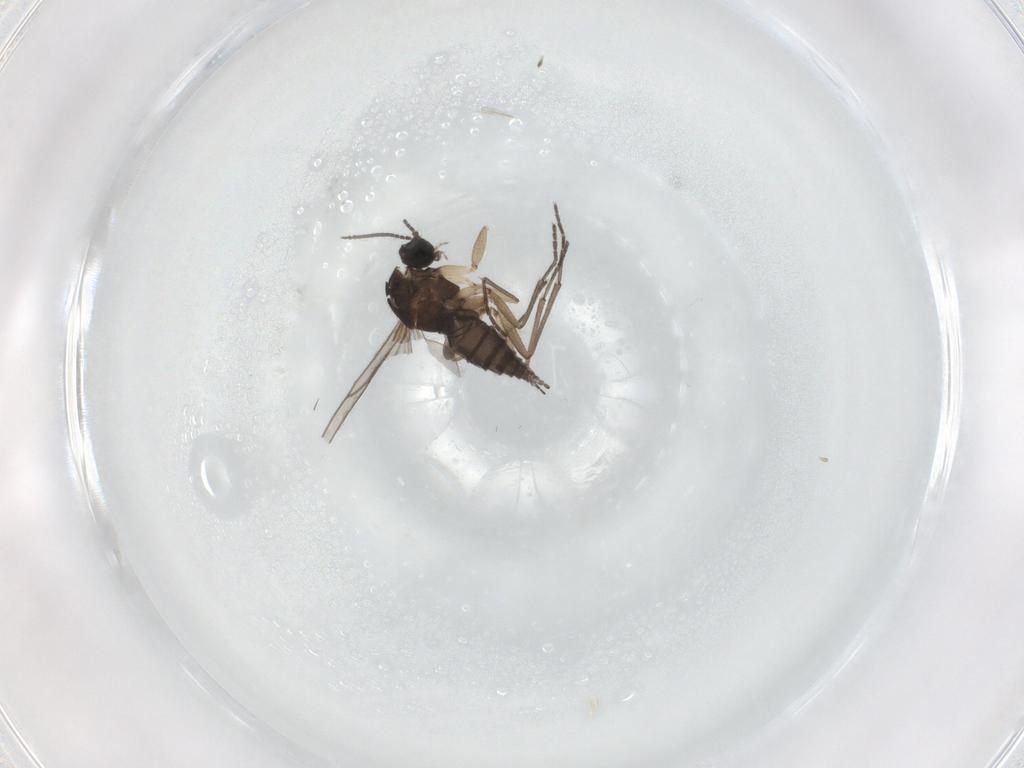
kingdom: Animalia
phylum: Arthropoda
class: Insecta
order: Diptera
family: Sciaridae
